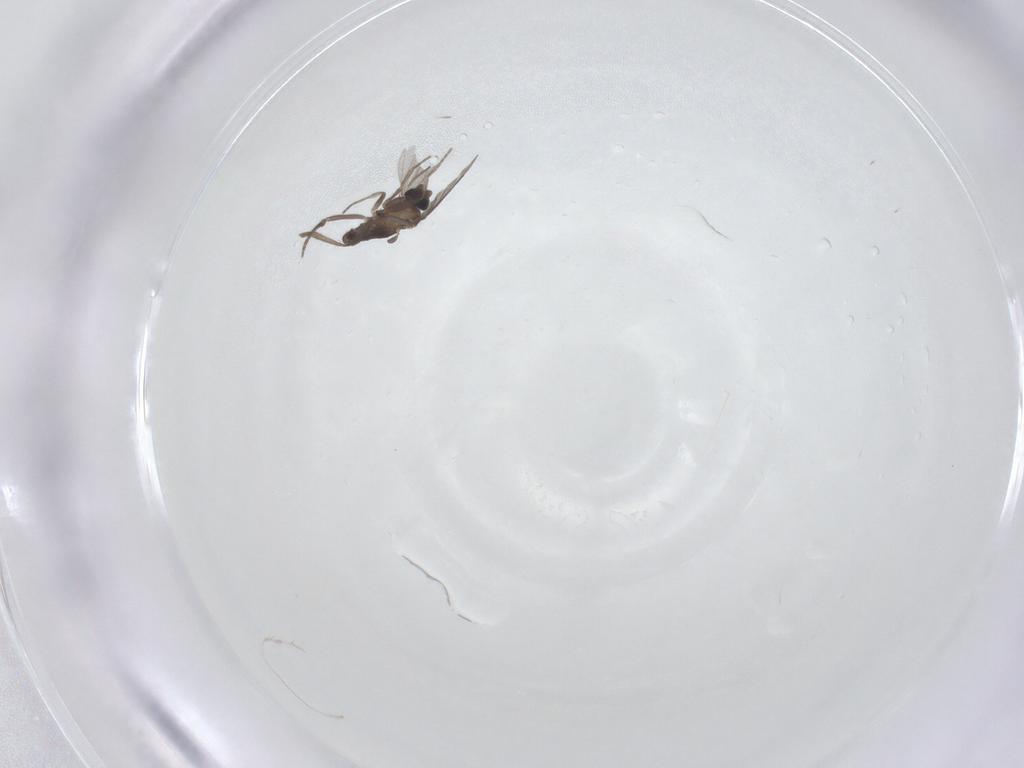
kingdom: Animalia
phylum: Arthropoda
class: Insecta
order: Diptera
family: Phoridae
